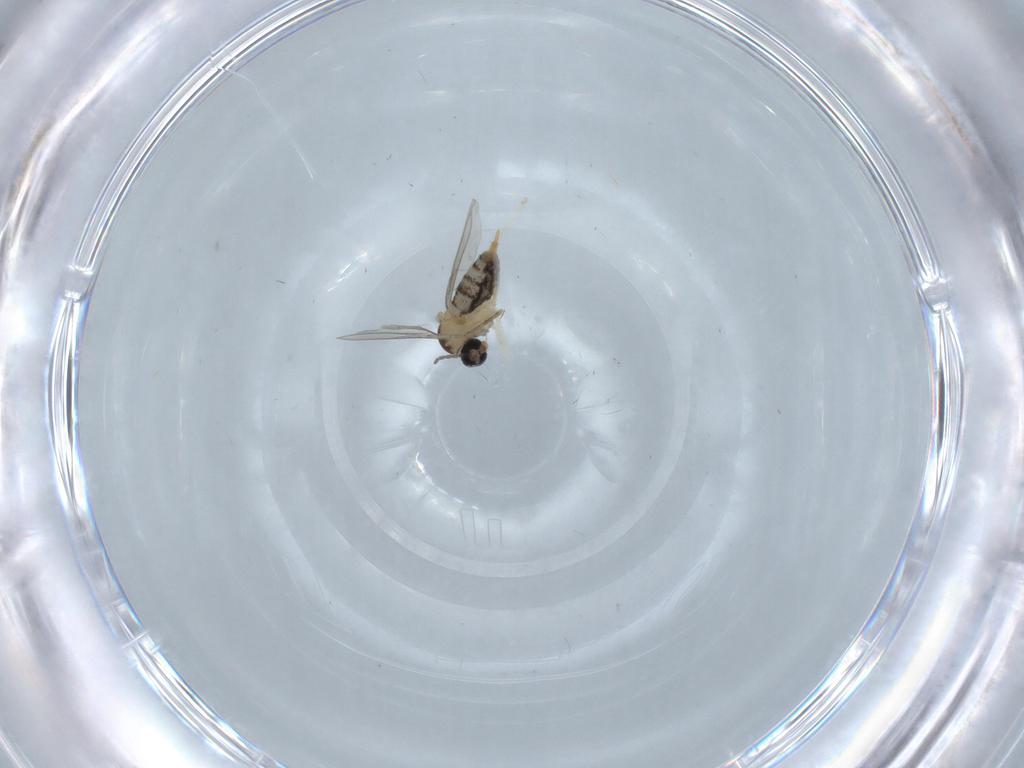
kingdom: Animalia
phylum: Arthropoda
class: Insecta
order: Diptera
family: Cecidomyiidae
